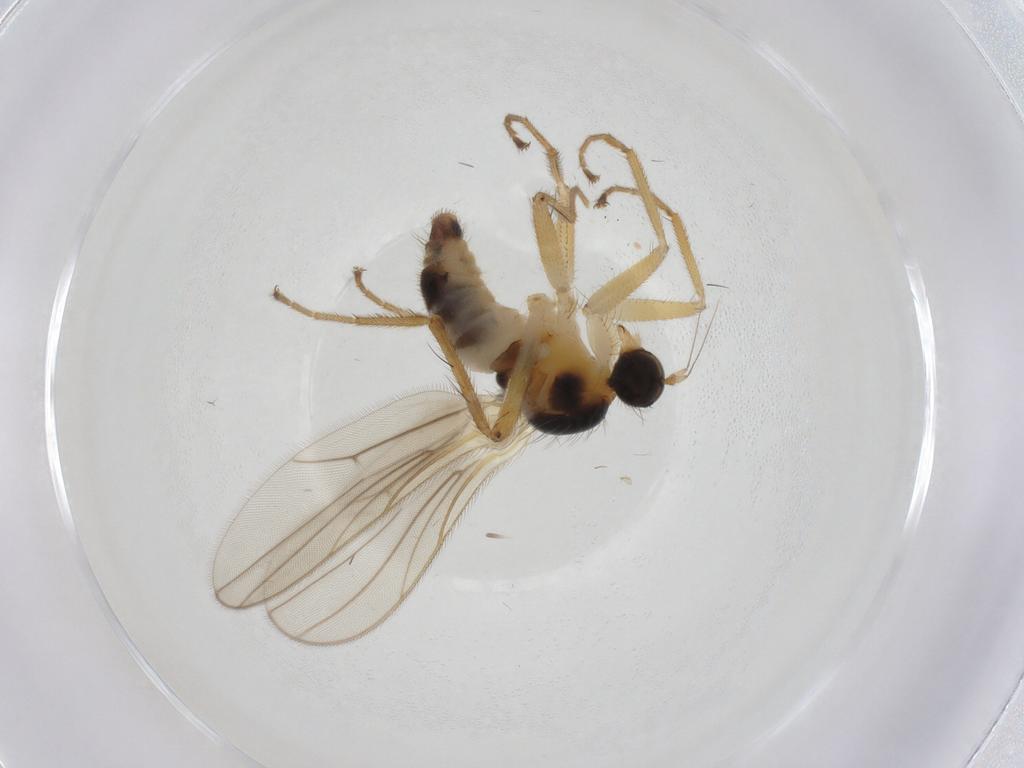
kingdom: Animalia
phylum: Arthropoda
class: Insecta
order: Diptera
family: Hybotidae
